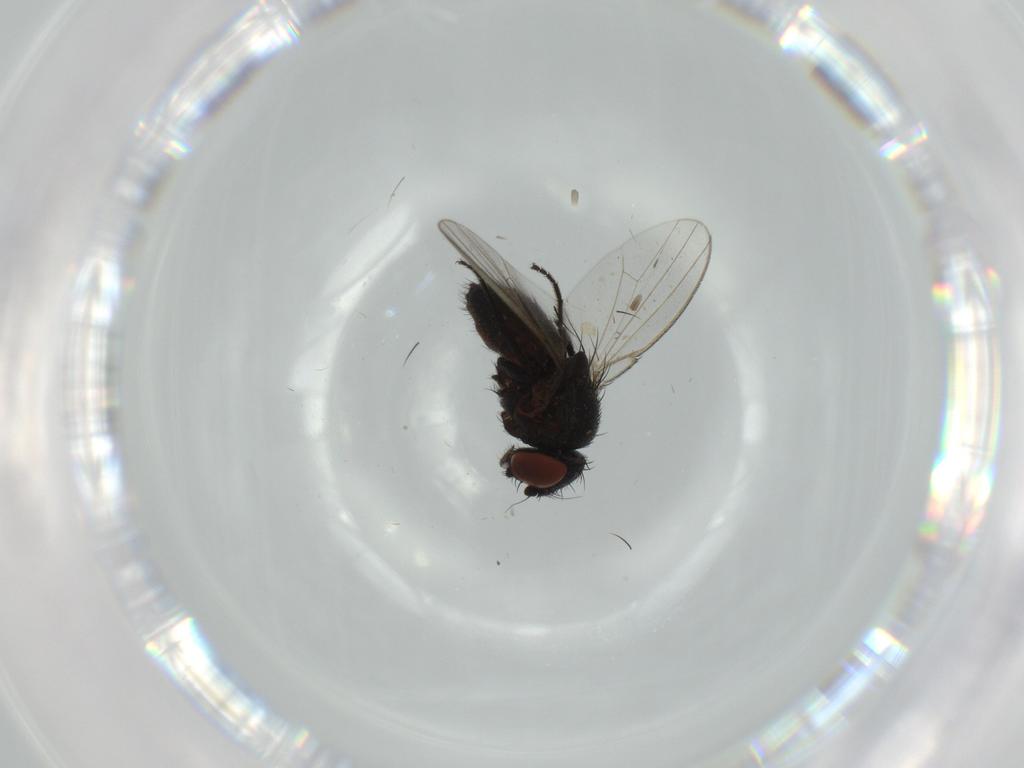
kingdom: Animalia
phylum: Arthropoda
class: Insecta
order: Diptera
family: Milichiidae
